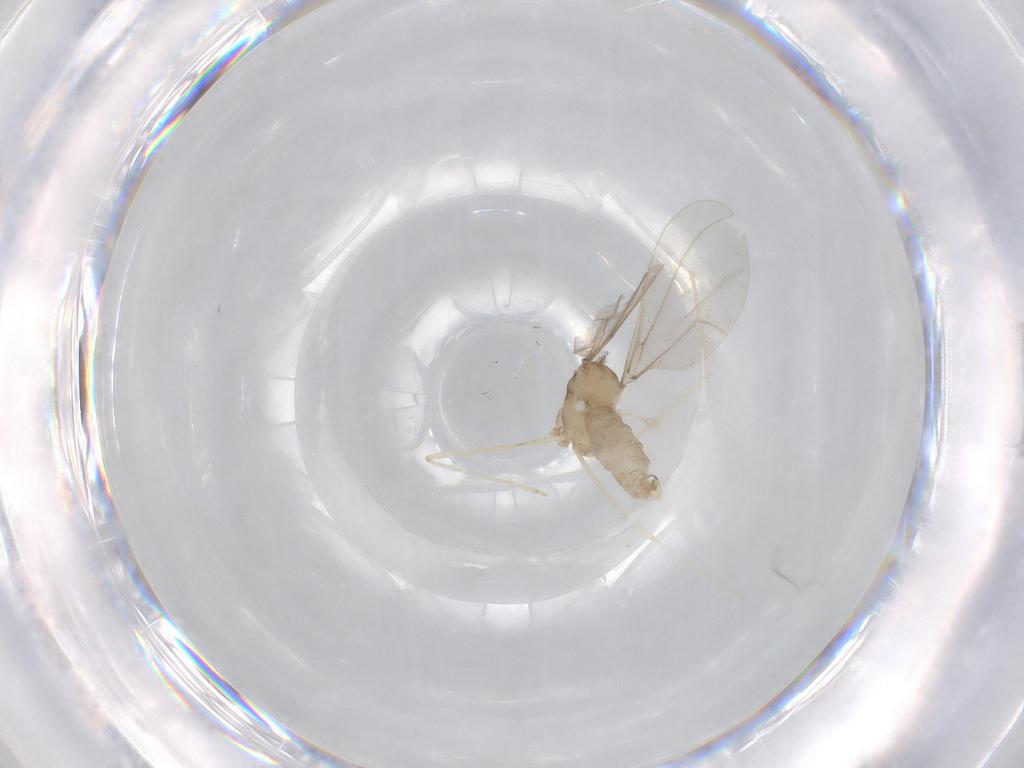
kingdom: Animalia
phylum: Arthropoda
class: Insecta
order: Diptera
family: Cecidomyiidae
